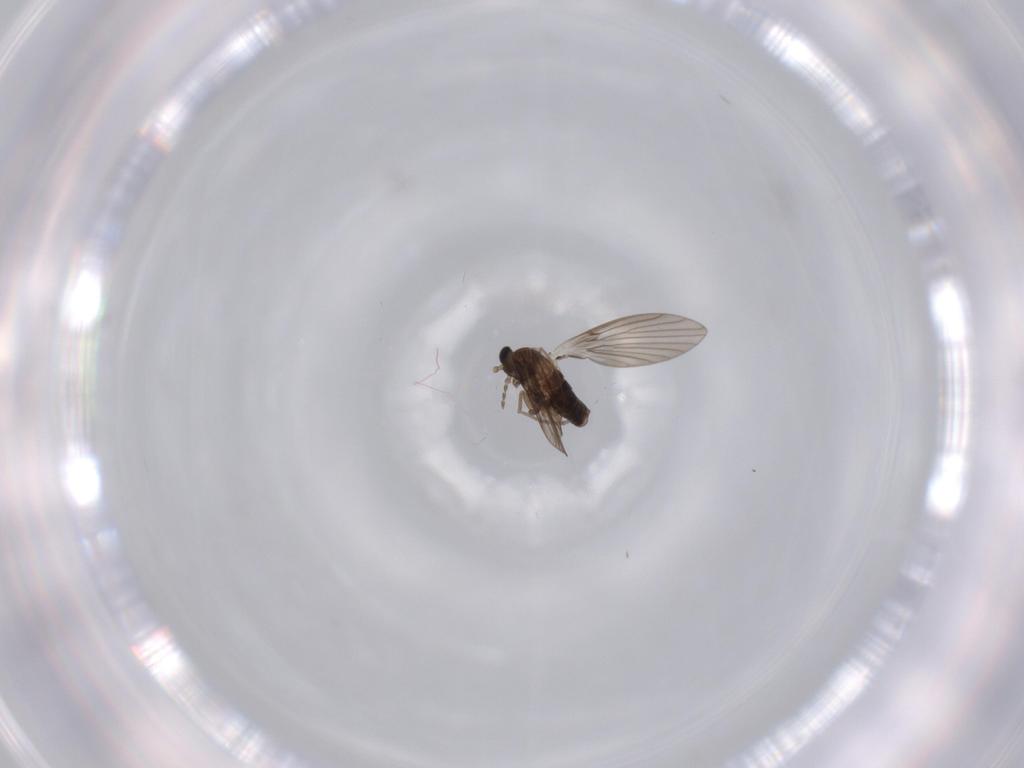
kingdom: Animalia
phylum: Arthropoda
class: Insecta
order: Diptera
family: Psychodidae
